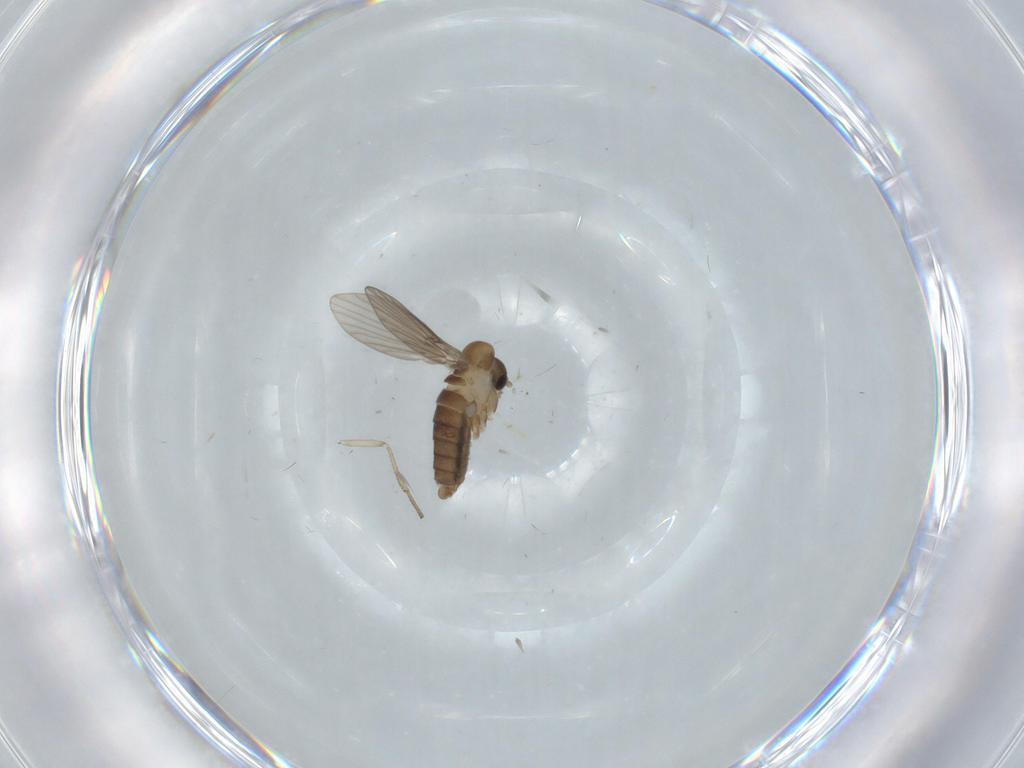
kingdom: Animalia
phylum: Arthropoda
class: Insecta
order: Diptera
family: Psychodidae
